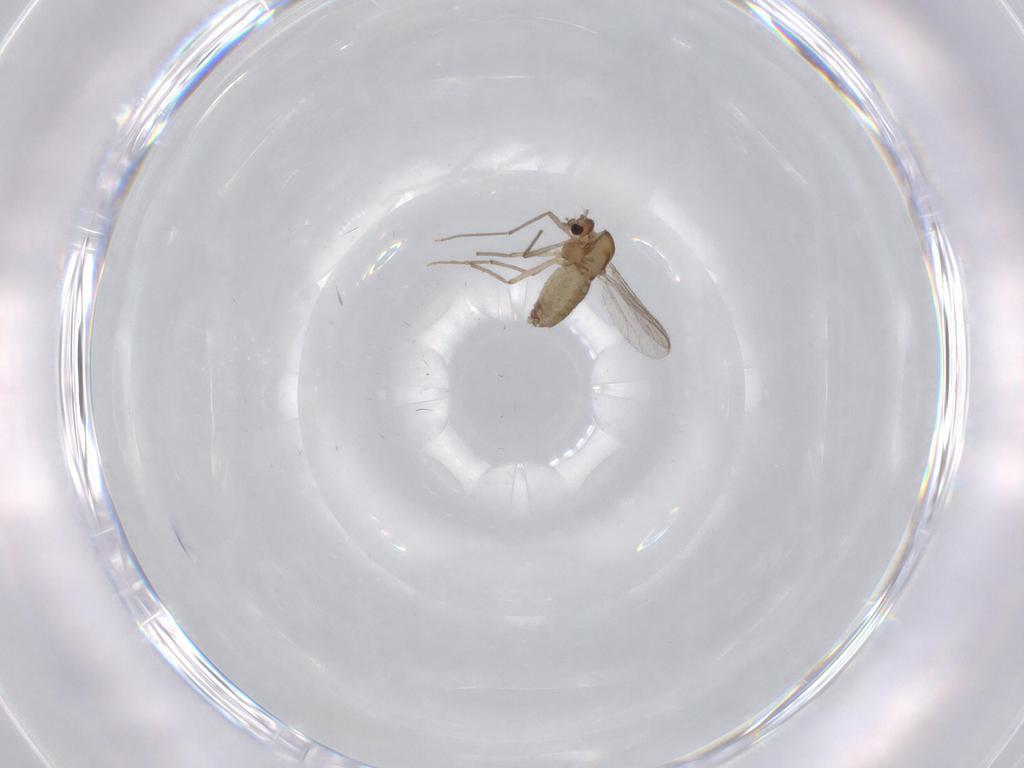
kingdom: Animalia
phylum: Arthropoda
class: Insecta
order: Diptera
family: Chironomidae
